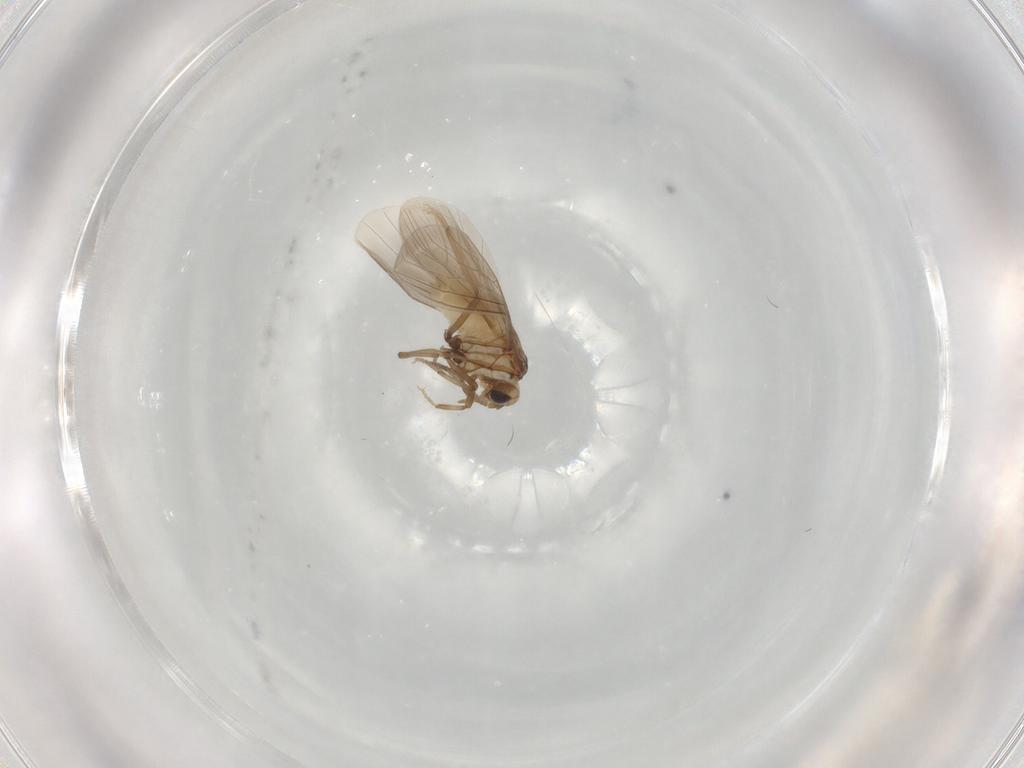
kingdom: Animalia
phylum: Arthropoda
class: Insecta
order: Neuroptera
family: Coniopterygidae
